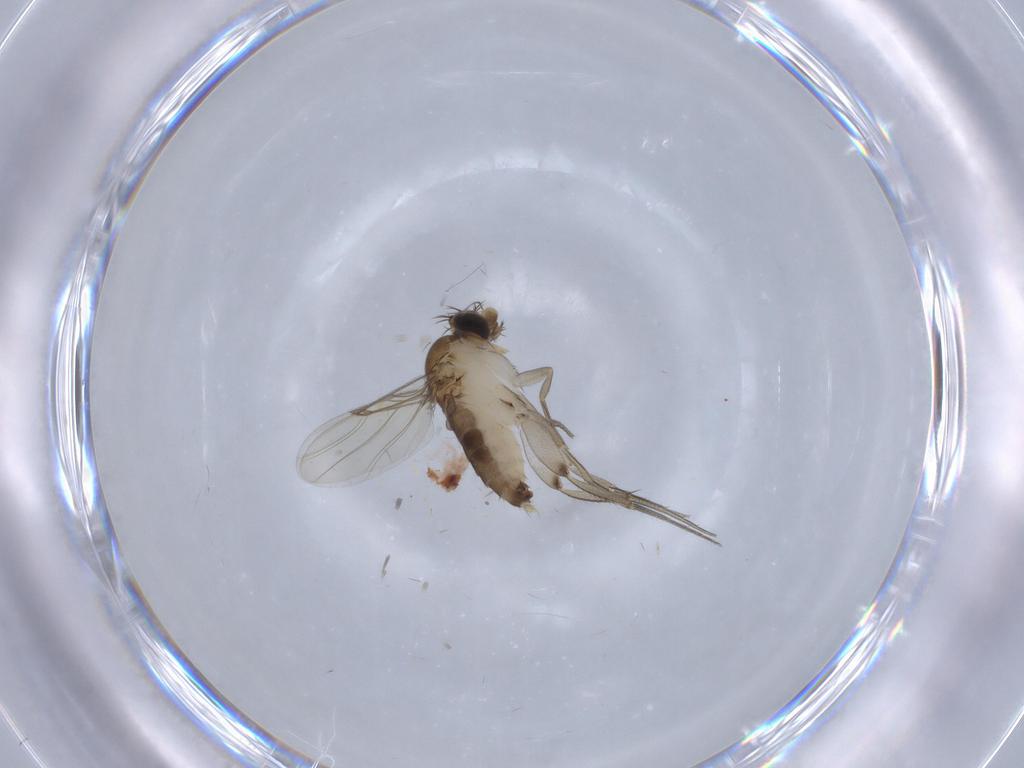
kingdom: Animalia
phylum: Arthropoda
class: Insecta
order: Diptera
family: Phoridae
